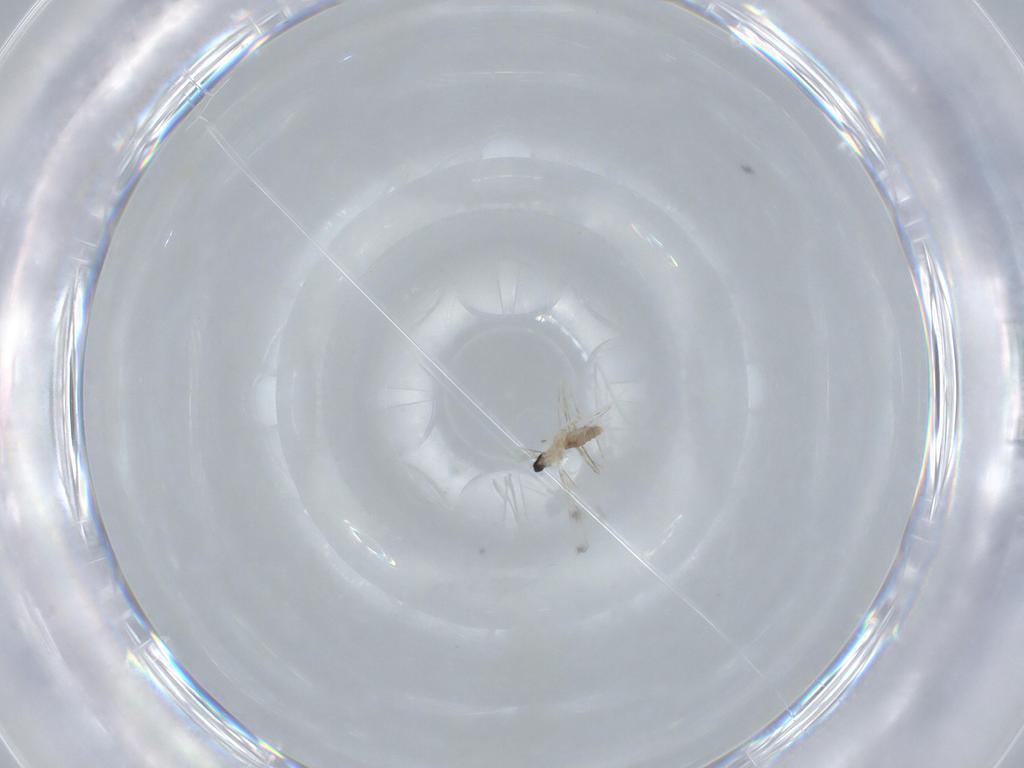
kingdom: Animalia
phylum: Arthropoda
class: Insecta
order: Diptera
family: Cecidomyiidae
